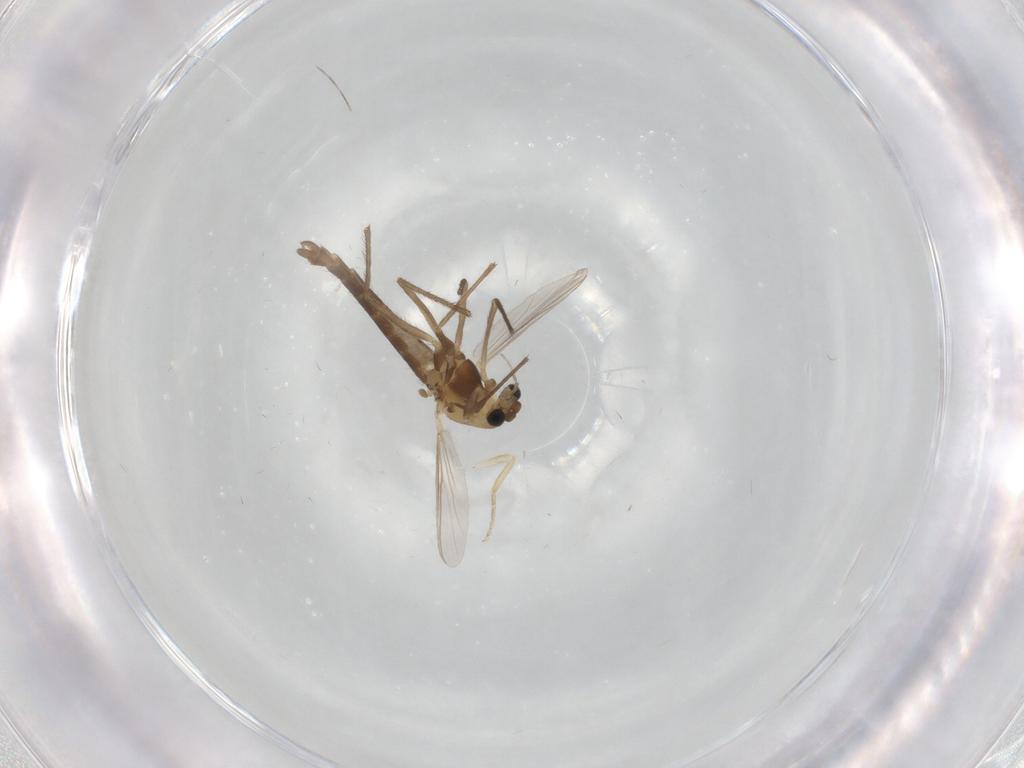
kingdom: Animalia
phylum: Arthropoda
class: Insecta
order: Diptera
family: Chironomidae
